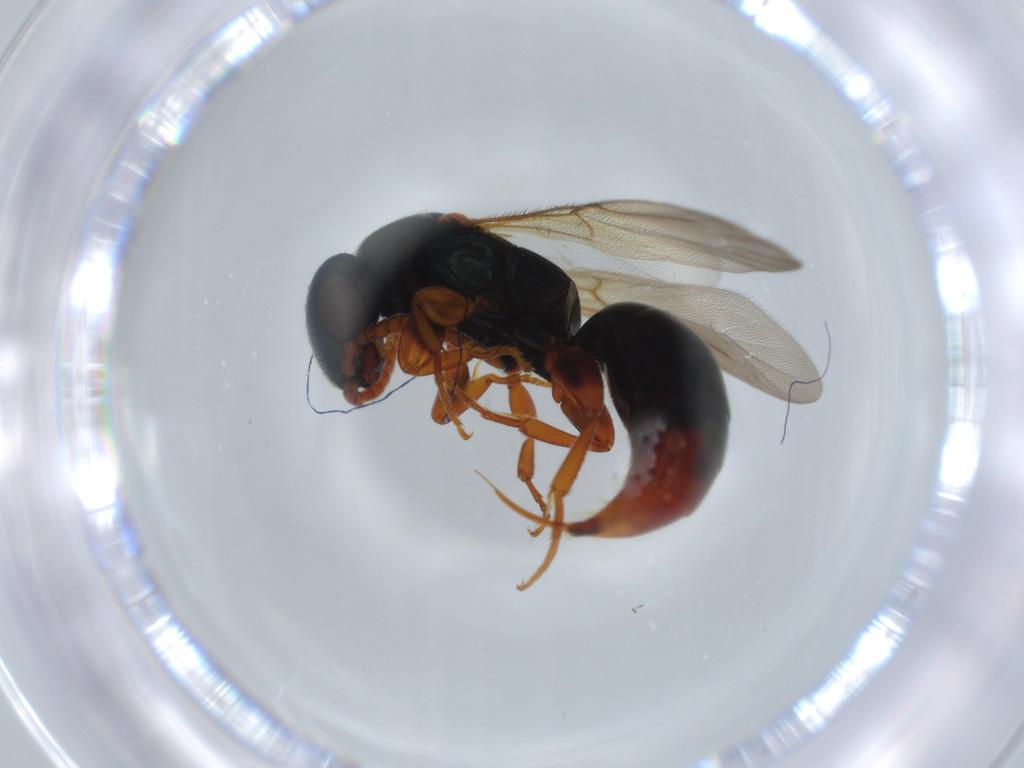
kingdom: Animalia
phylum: Arthropoda
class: Insecta
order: Hymenoptera
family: Bethylidae
